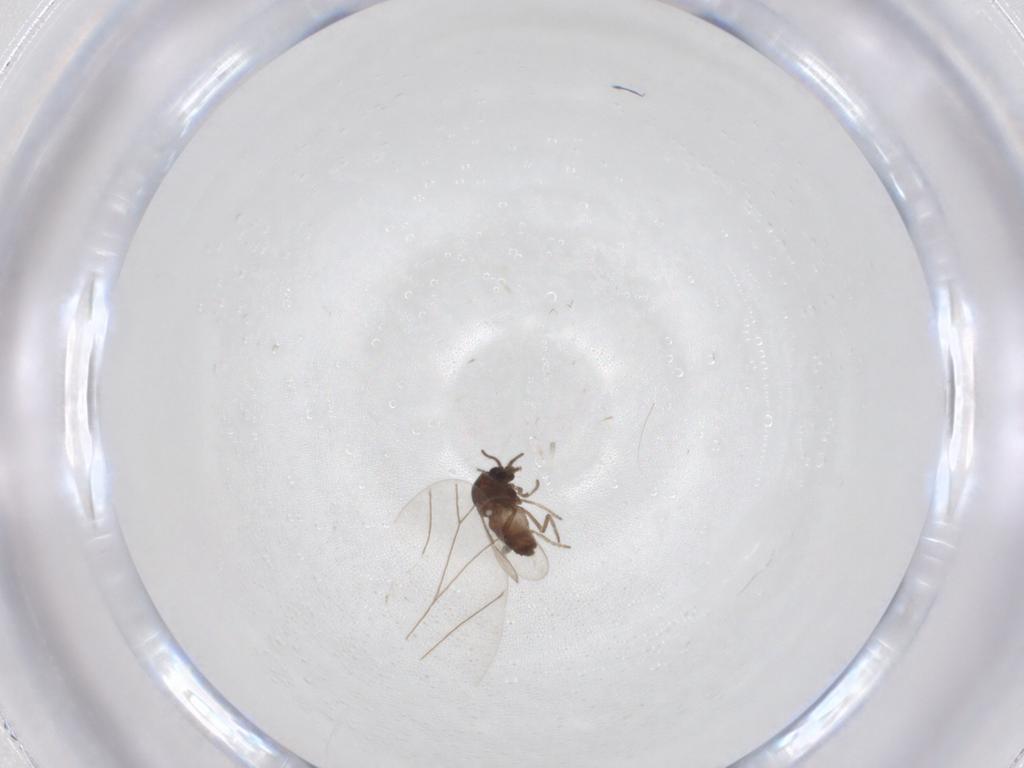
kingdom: Animalia
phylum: Arthropoda
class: Insecta
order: Diptera
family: Ceratopogonidae
